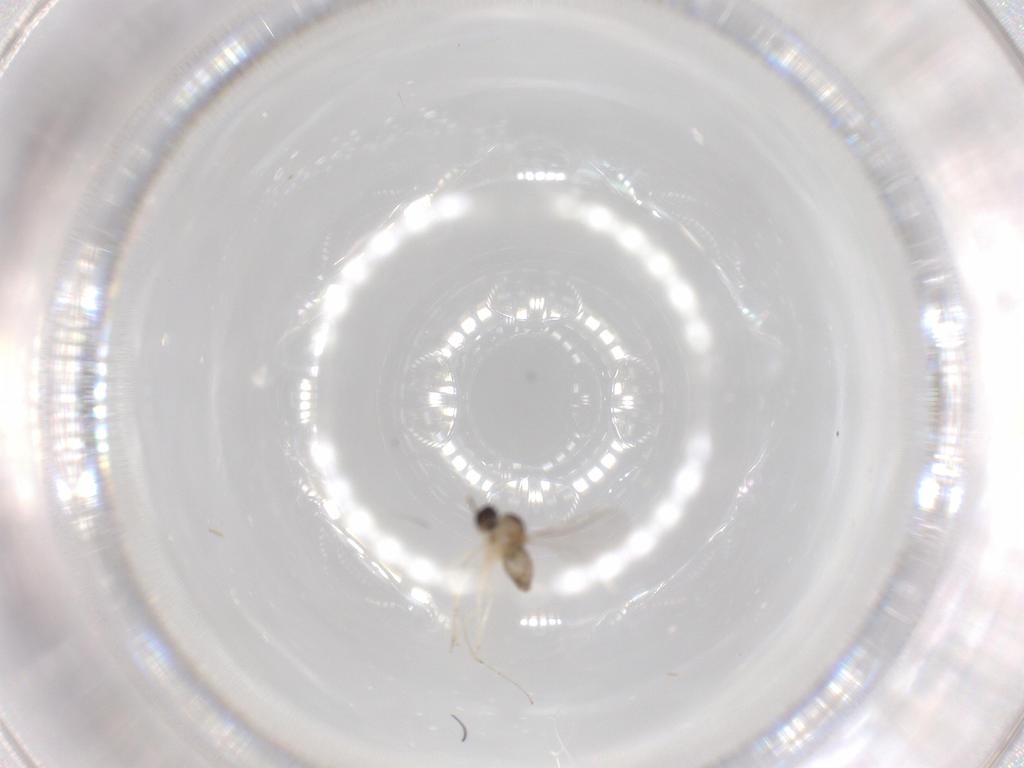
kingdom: Animalia
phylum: Arthropoda
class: Insecta
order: Diptera
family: Cecidomyiidae
